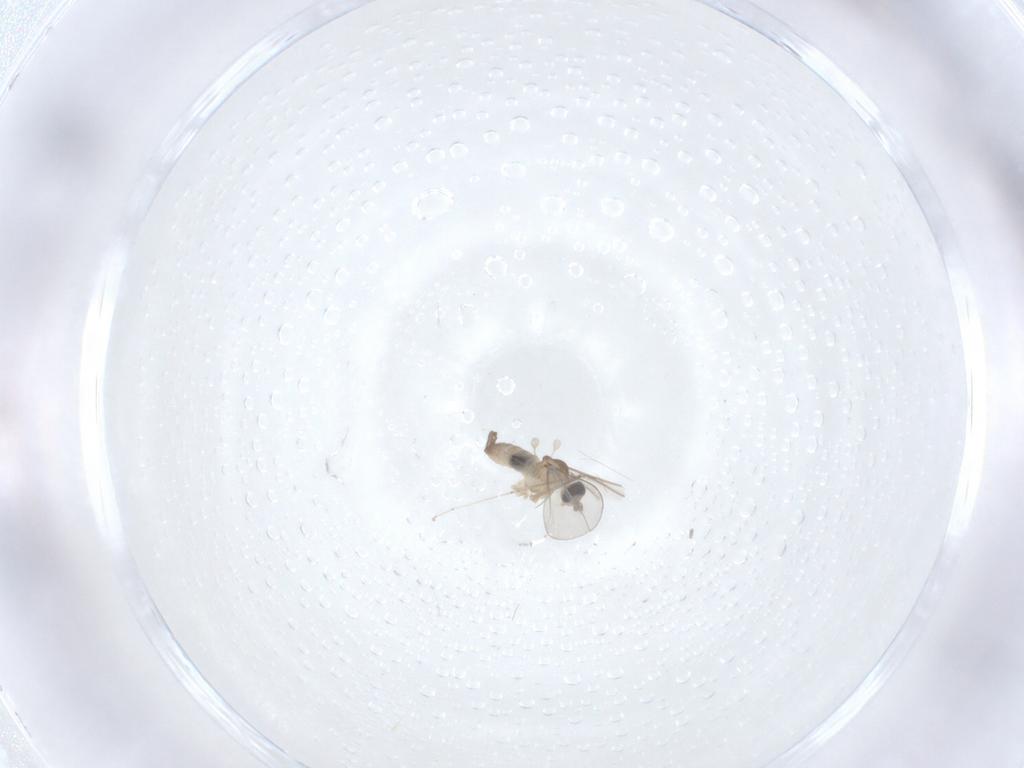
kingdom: Animalia
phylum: Arthropoda
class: Insecta
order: Diptera
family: Cecidomyiidae
